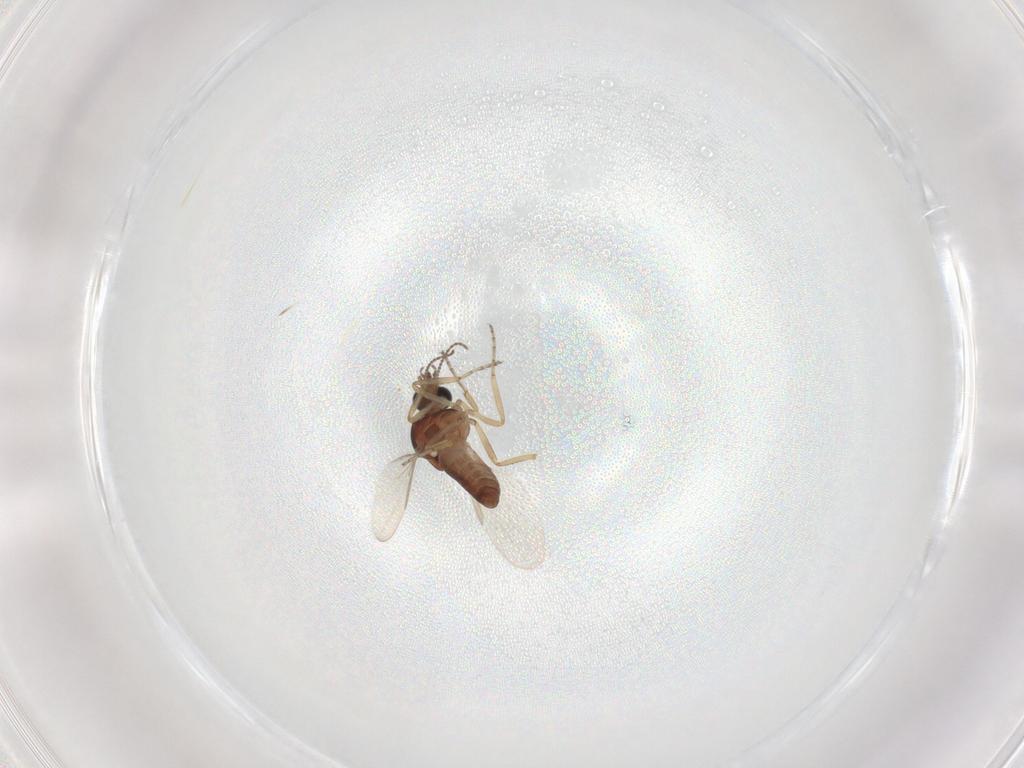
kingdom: Animalia
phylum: Arthropoda
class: Insecta
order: Diptera
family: Ceratopogonidae
